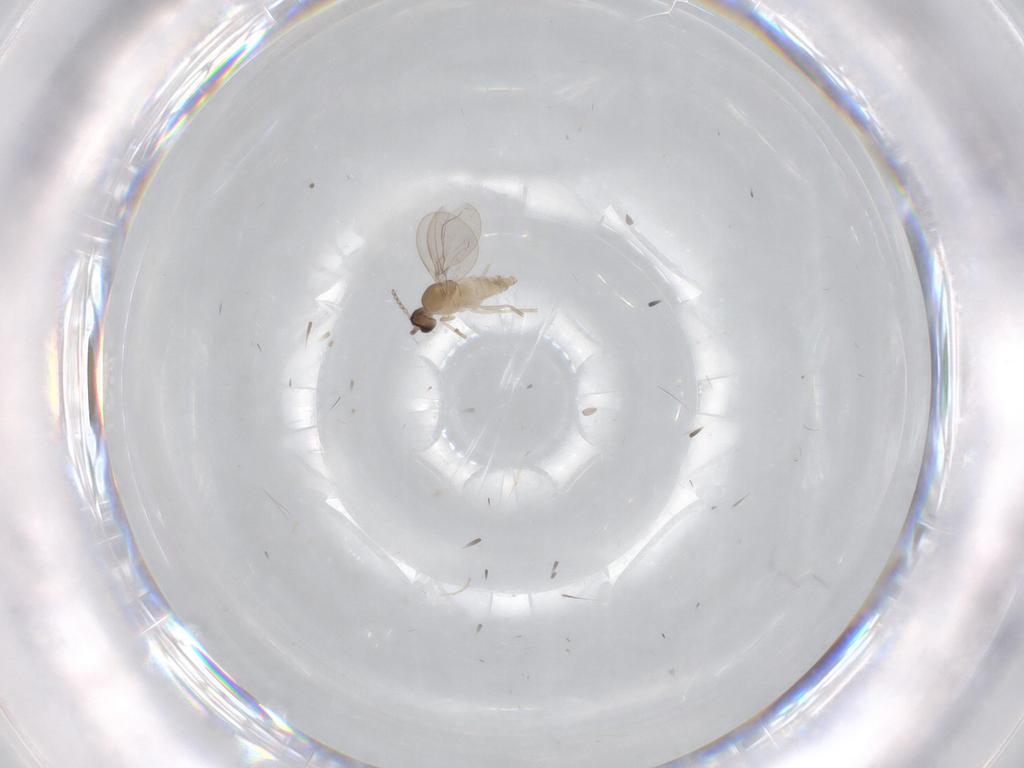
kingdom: Animalia
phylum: Arthropoda
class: Insecta
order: Diptera
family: Cecidomyiidae
